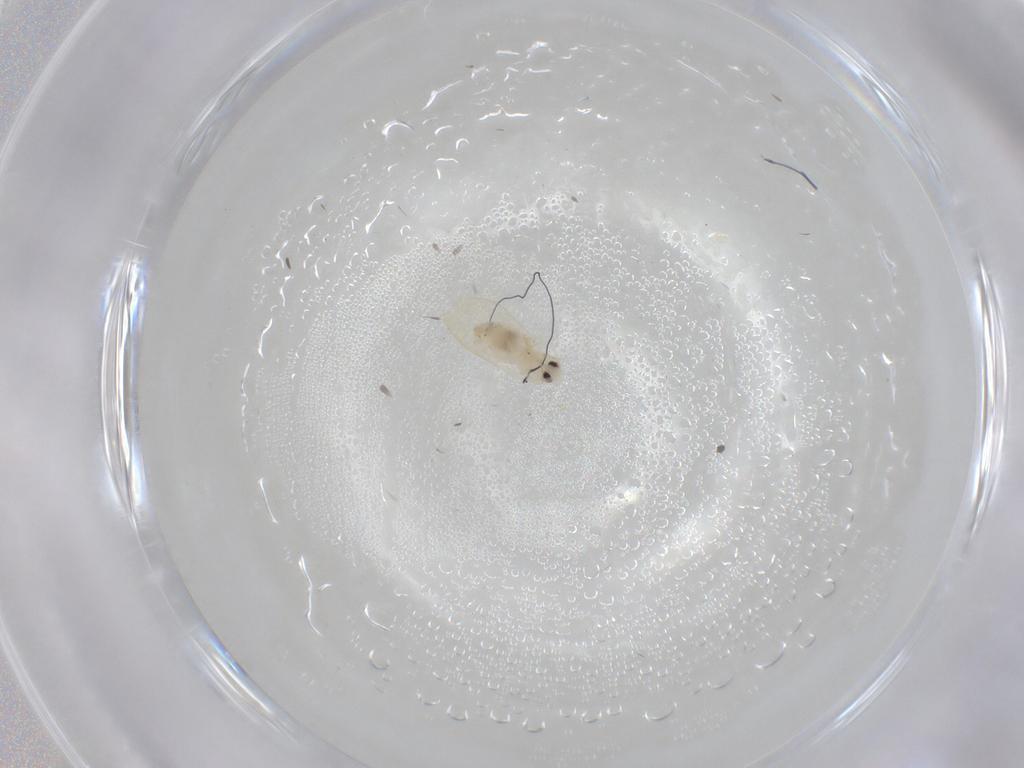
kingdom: Animalia
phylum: Arthropoda
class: Insecta
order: Hemiptera
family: Aleyrodidae
